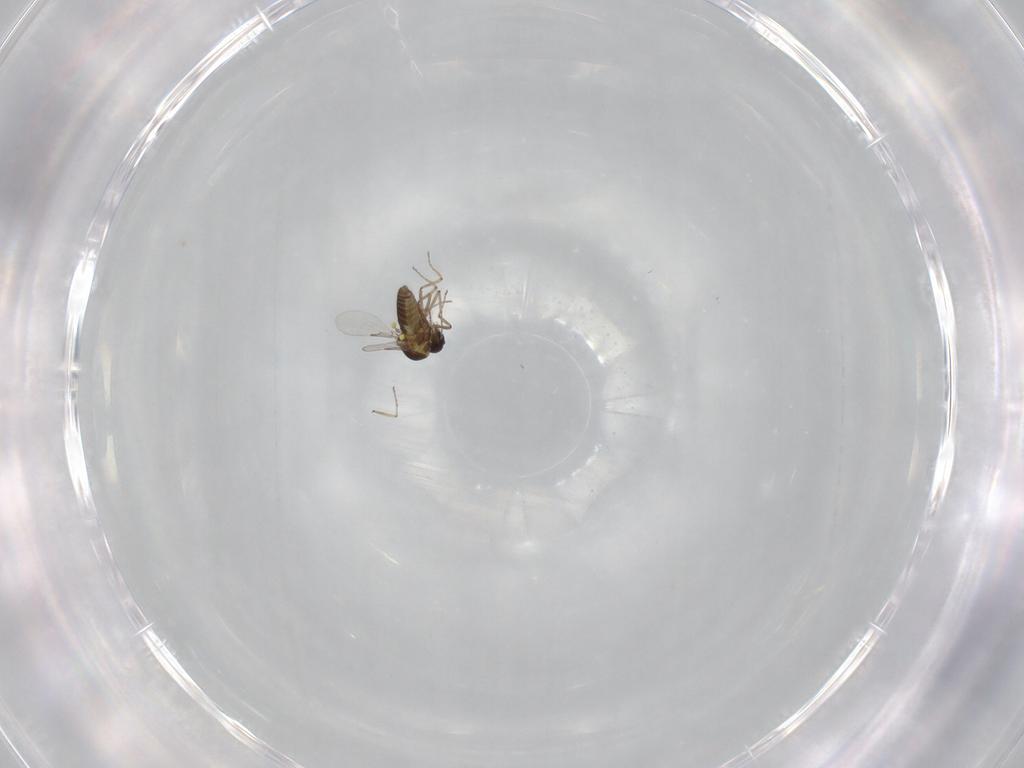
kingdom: Animalia
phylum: Arthropoda
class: Insecta
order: Diptera
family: Ceratopogonidae
